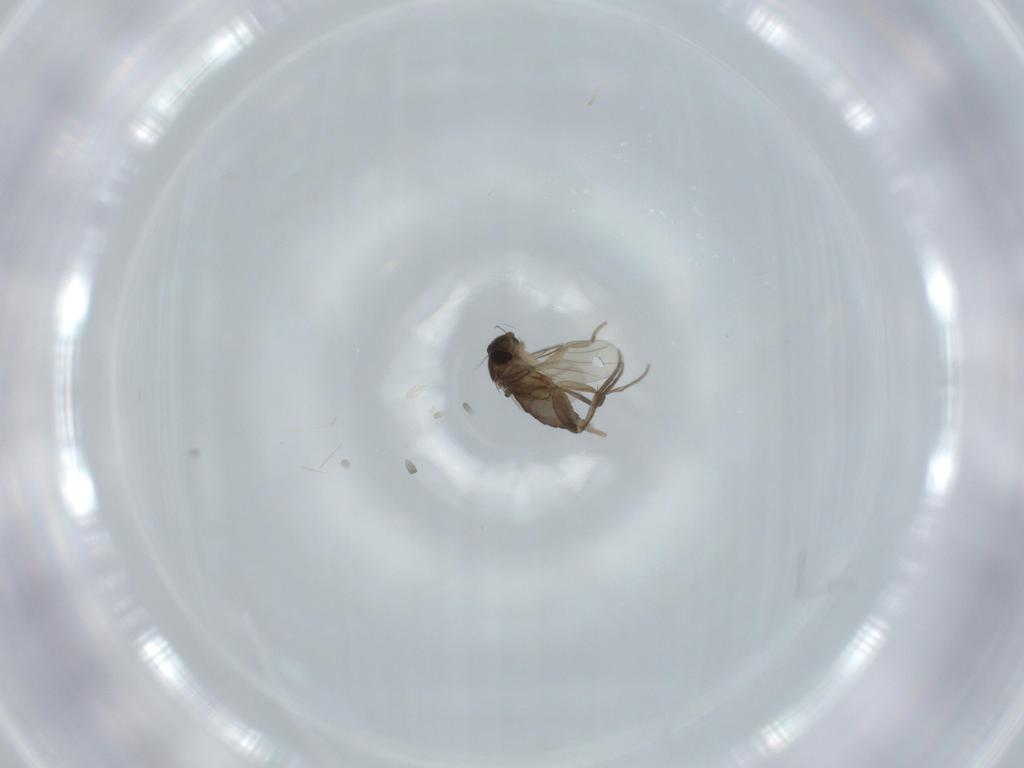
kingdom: Animalia
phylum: Arthropoda
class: Insecta
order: Diptera
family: Phoridae
